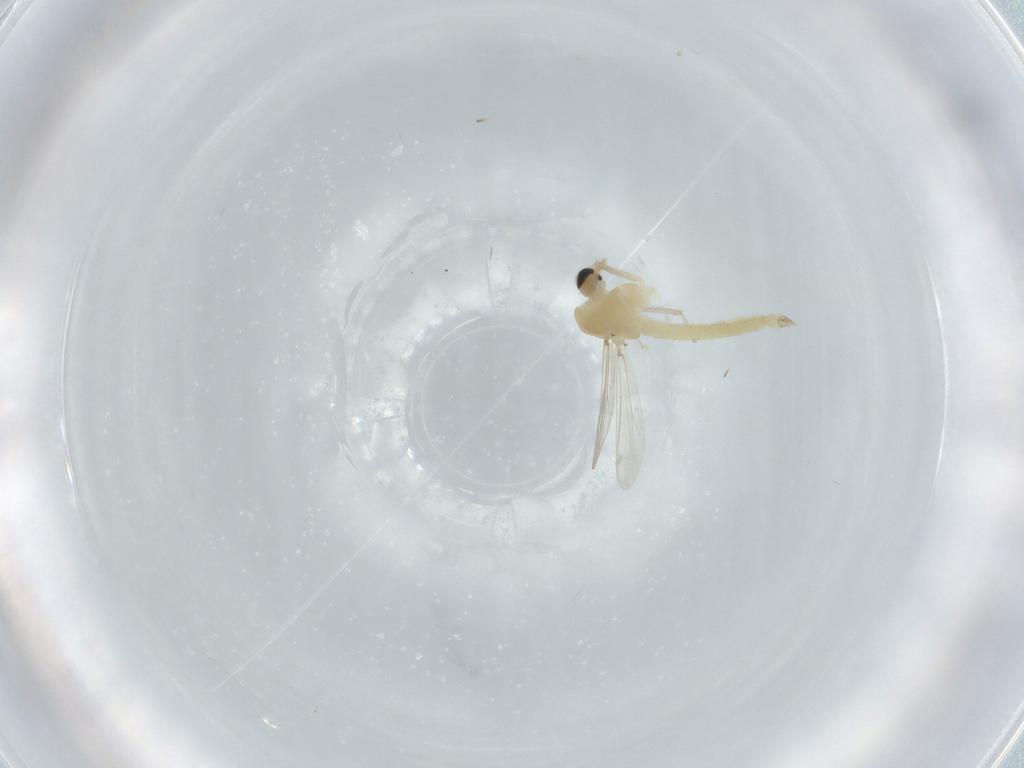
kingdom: Animalia
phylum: Arthropoda
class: Insecta
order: Diptera
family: Chironomidae
